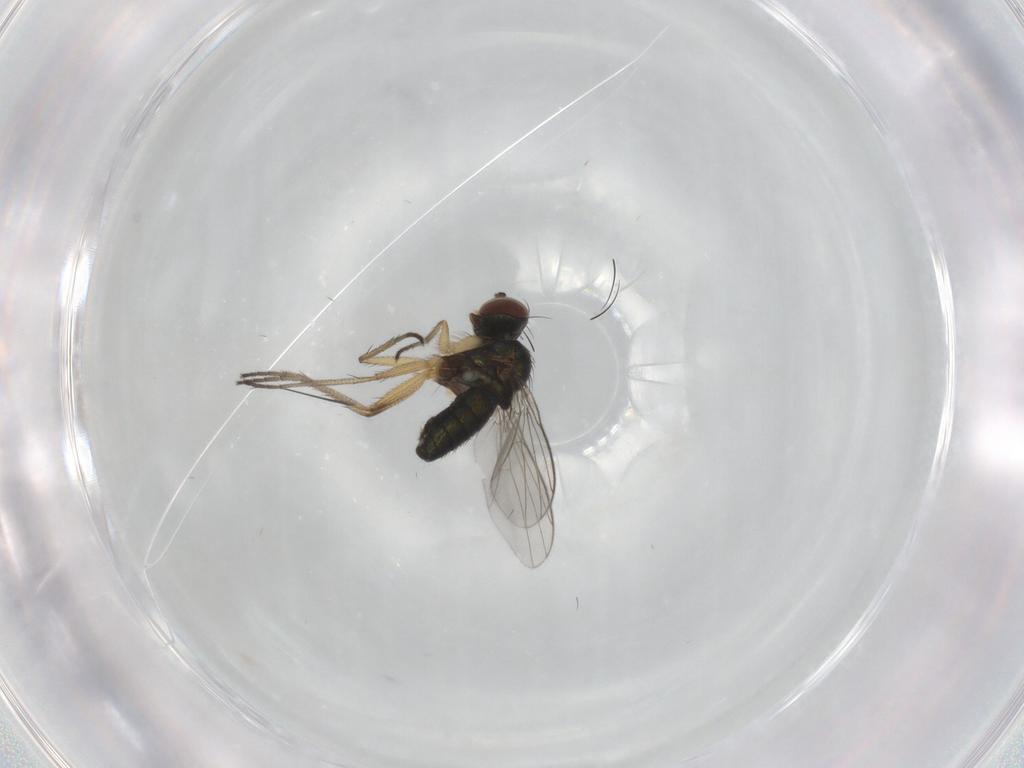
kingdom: Animalia
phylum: Arthropoda
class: Insecta
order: Diptera
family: Dolichopodidae
